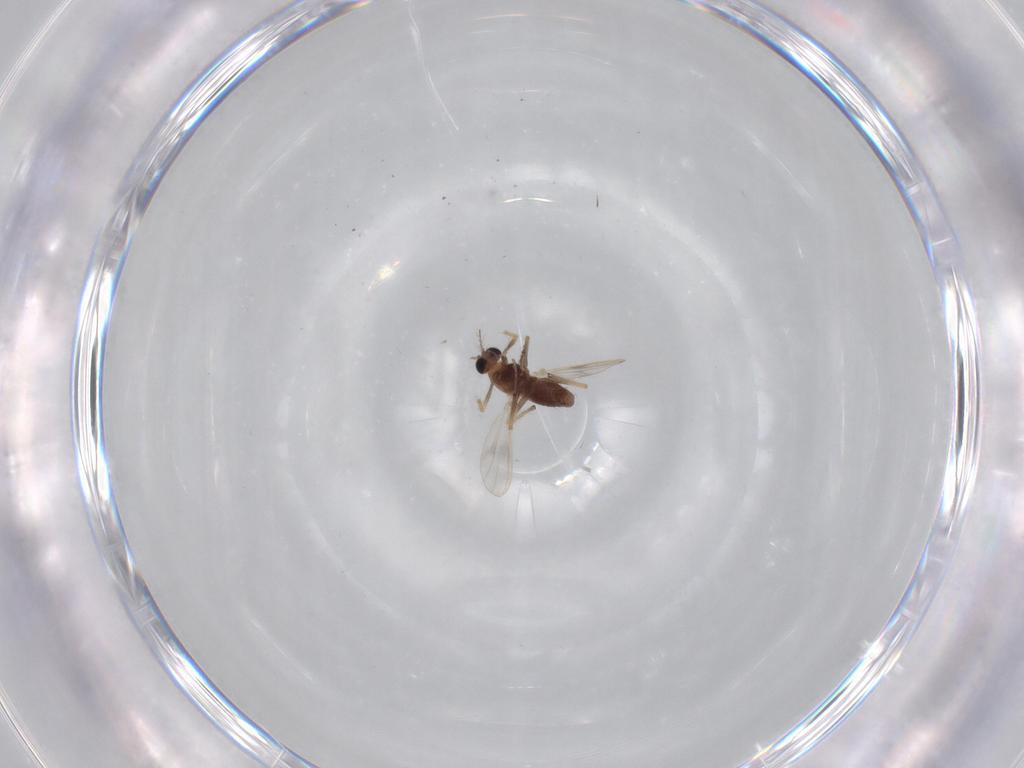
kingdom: Animalia
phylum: Arthropoda
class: Insecta
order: Diptera
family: Chironomidae
